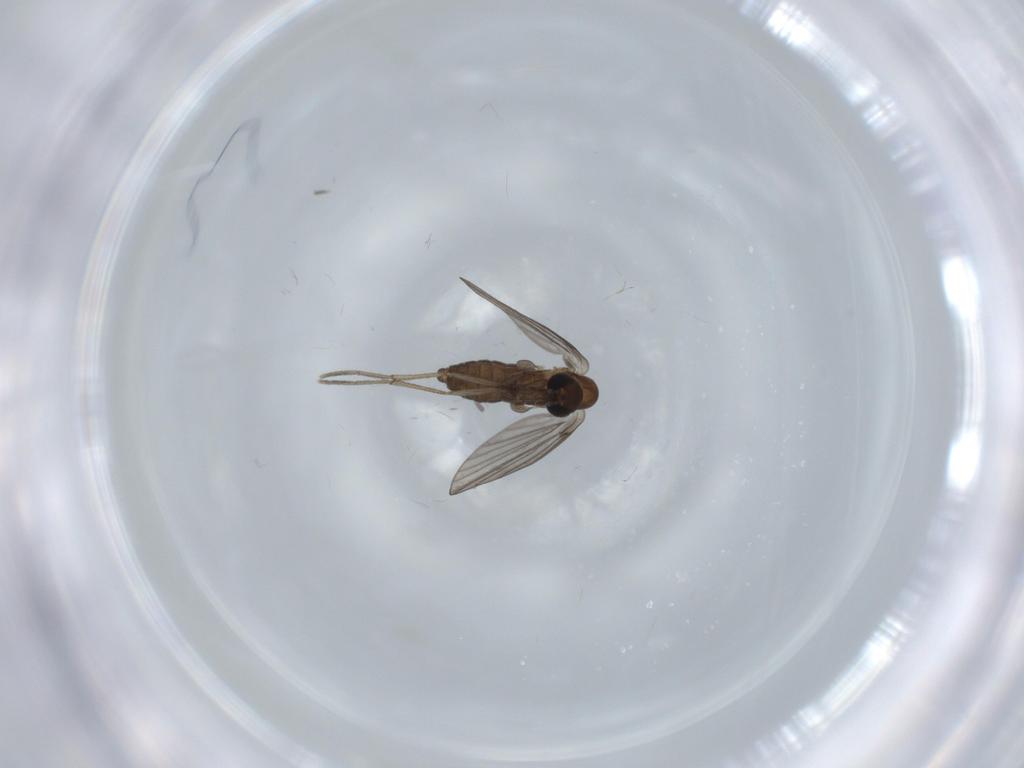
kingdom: Animalia
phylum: Arthropoda
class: Insecta
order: Diptera
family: Psychodidae
